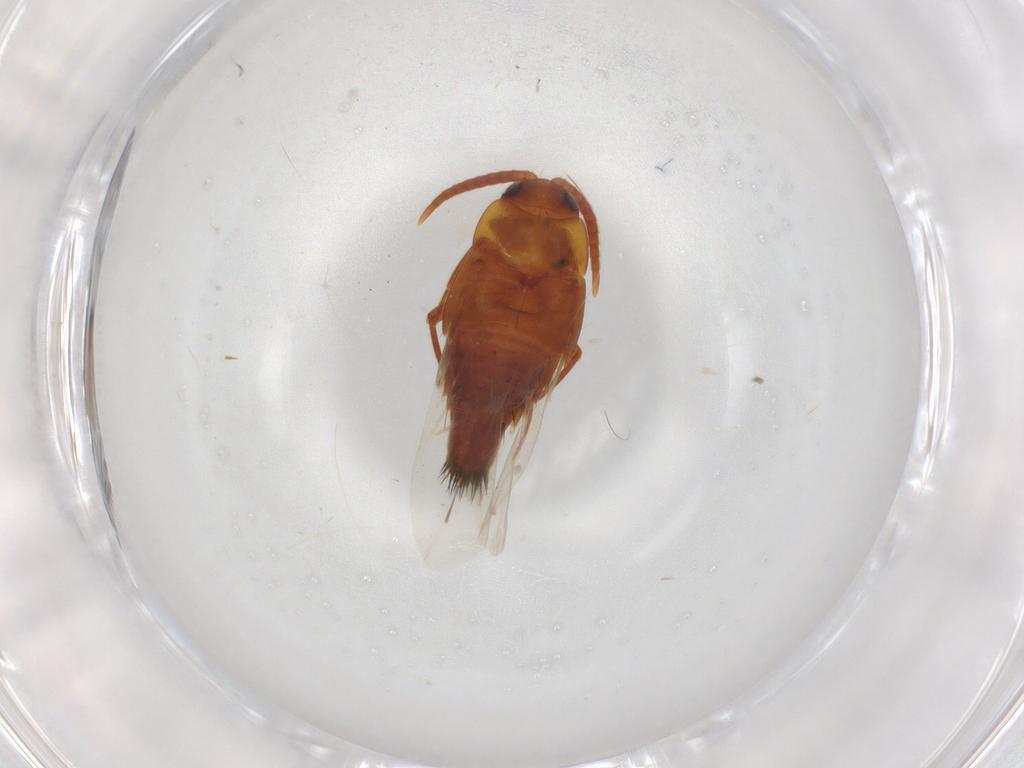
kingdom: Animalia
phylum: Arthropoda
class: Insecta
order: Coleoptera
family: Staphylinidae
